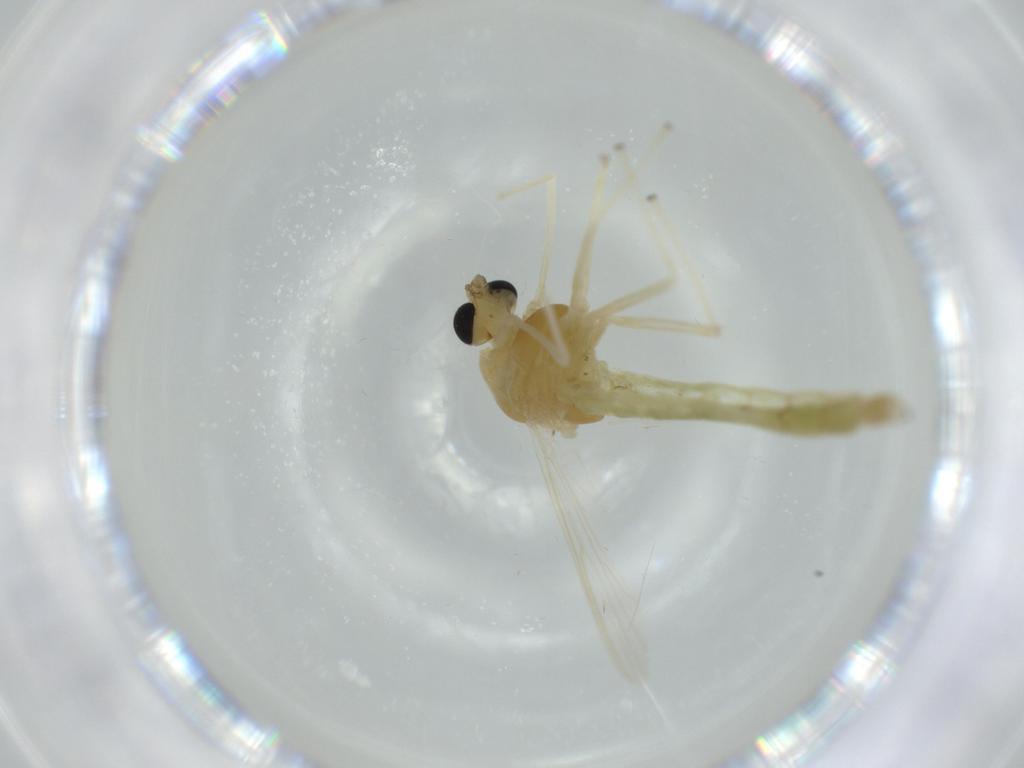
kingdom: Animalia
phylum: Arthropoda
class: Insecta
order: Diptera
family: Chironomidae
